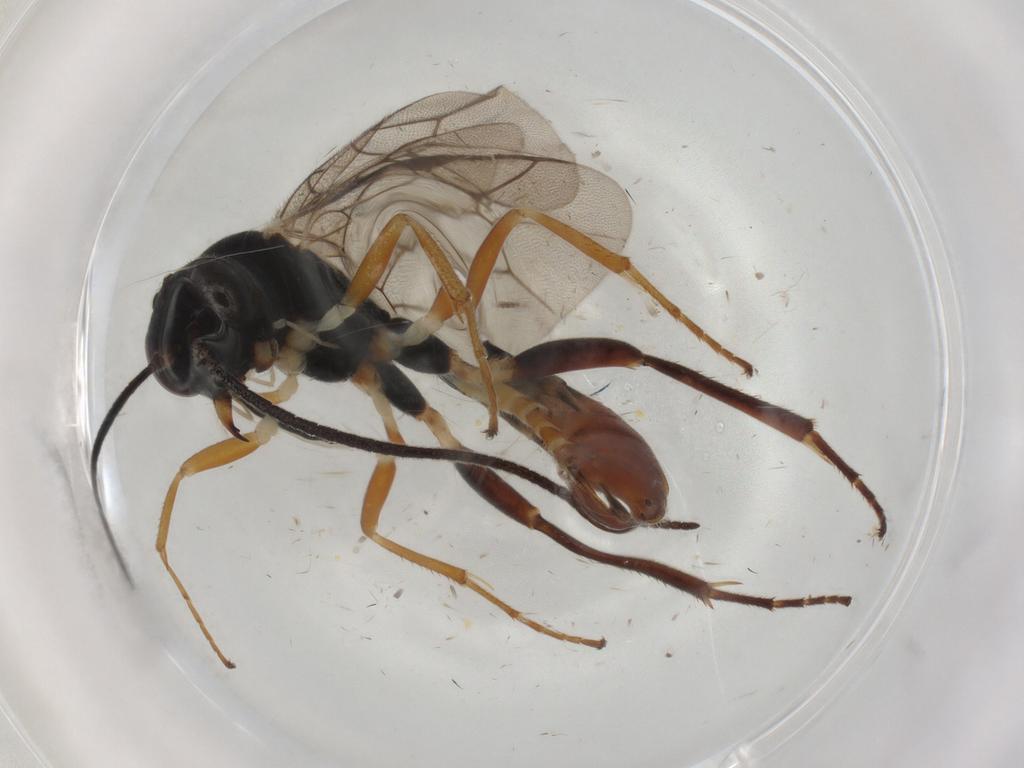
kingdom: Animalia
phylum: Arthropoda
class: Insecta
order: Hymenoptera
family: Ichneumonidae
